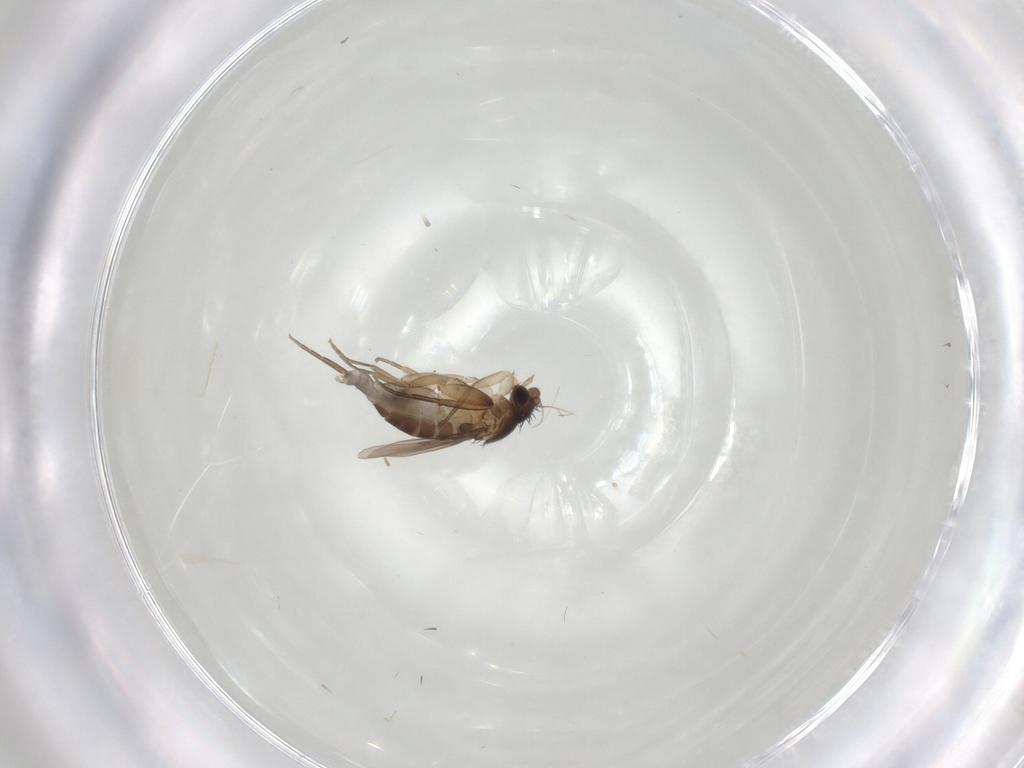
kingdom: Animalia
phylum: Arthropoda
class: Insecta
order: Diptera
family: Phoridae
